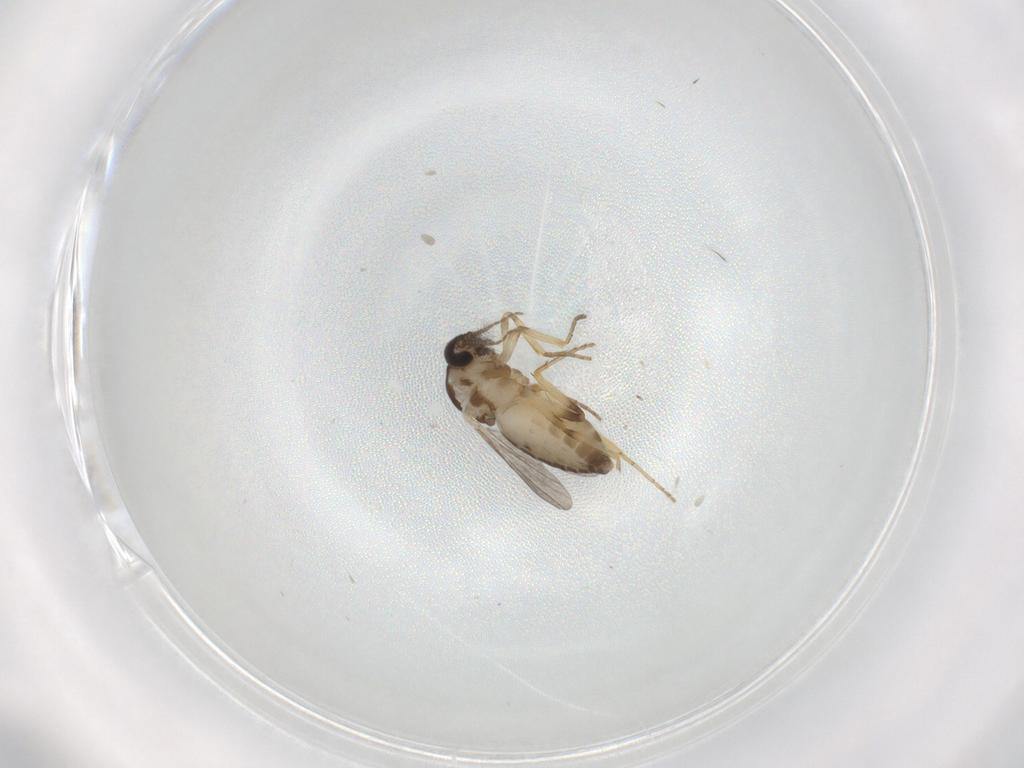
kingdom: Animalia
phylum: Arthropoda
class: Insecta
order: Diptera
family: Ceratopogonidae
